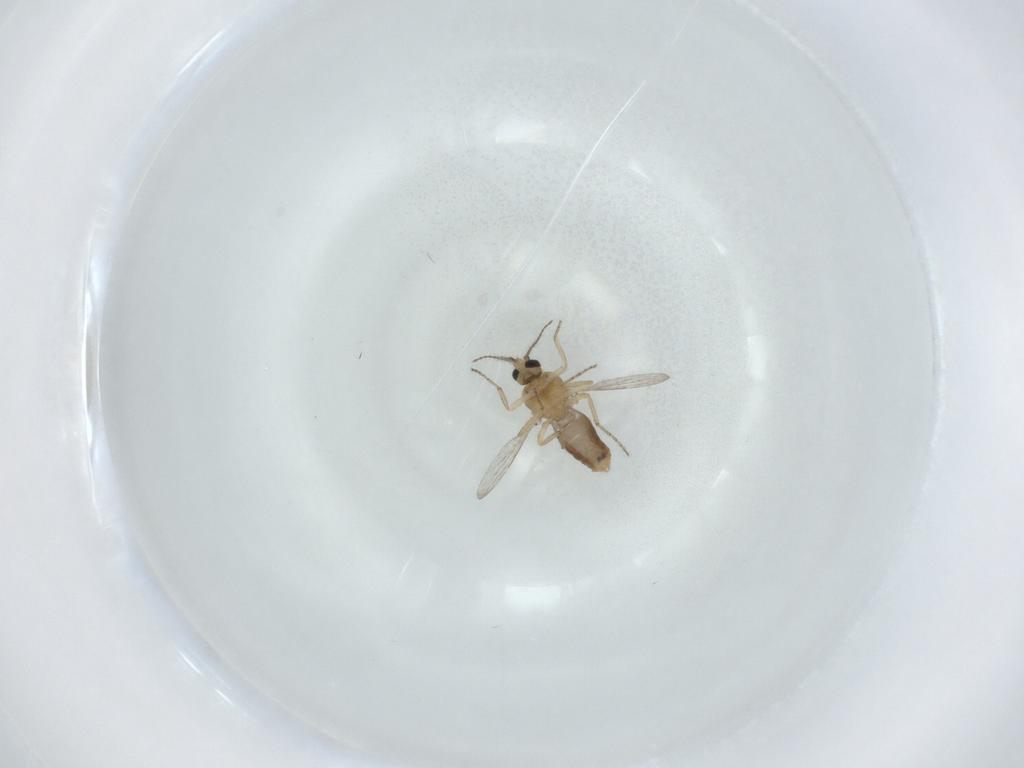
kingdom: Animalia
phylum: Arthropoda
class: Insecta
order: Diptera
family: Ceratopogonidae
